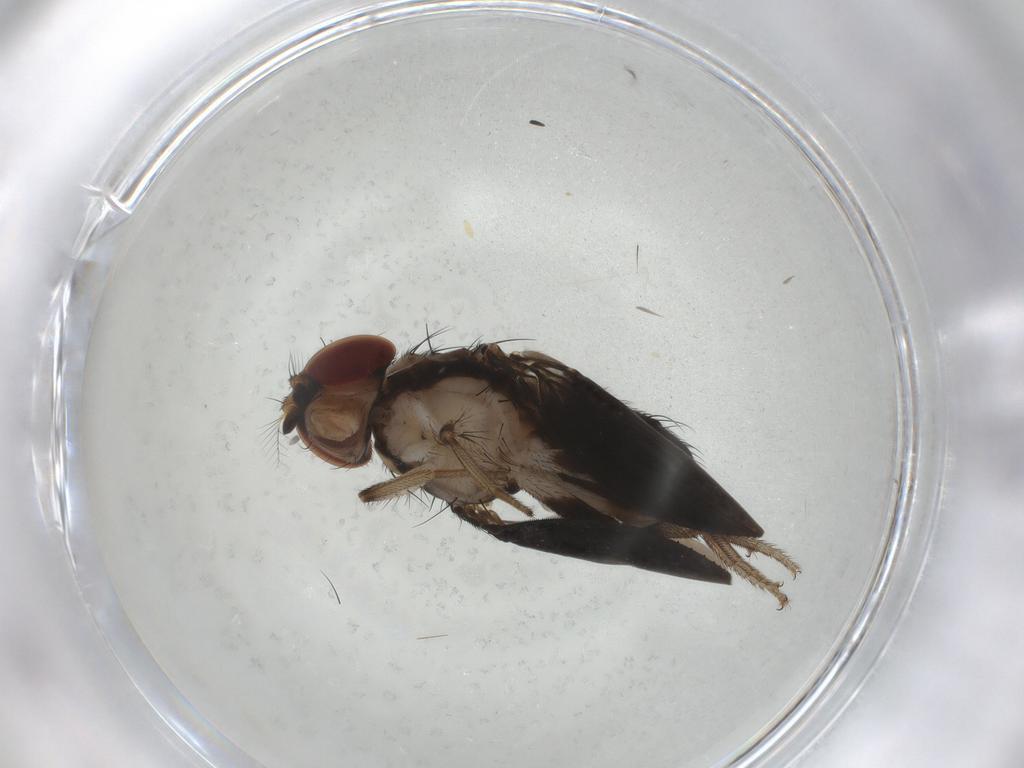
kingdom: Animalia
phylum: Arthropoda
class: Insecta
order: Diptera
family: Drosophilidae
